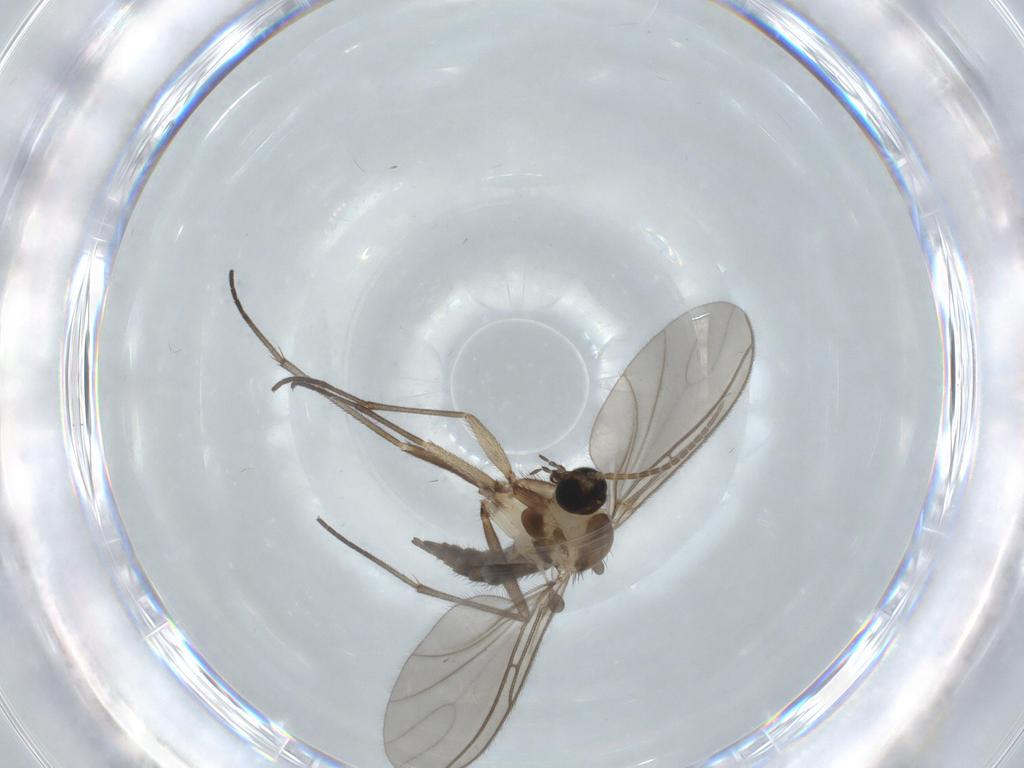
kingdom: Animalia
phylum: Arthropoda
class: Insecta
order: Diptera
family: Sciaridae
